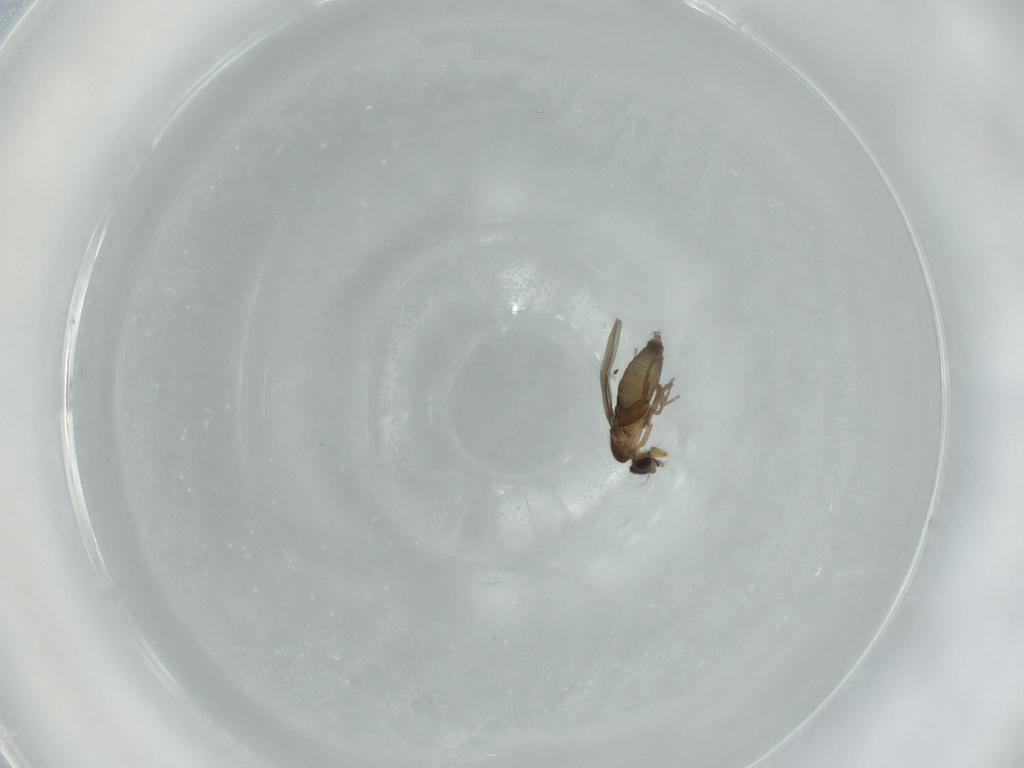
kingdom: Animalia
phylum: Arthropoda
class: Insecta
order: Diptera
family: Phoridae
